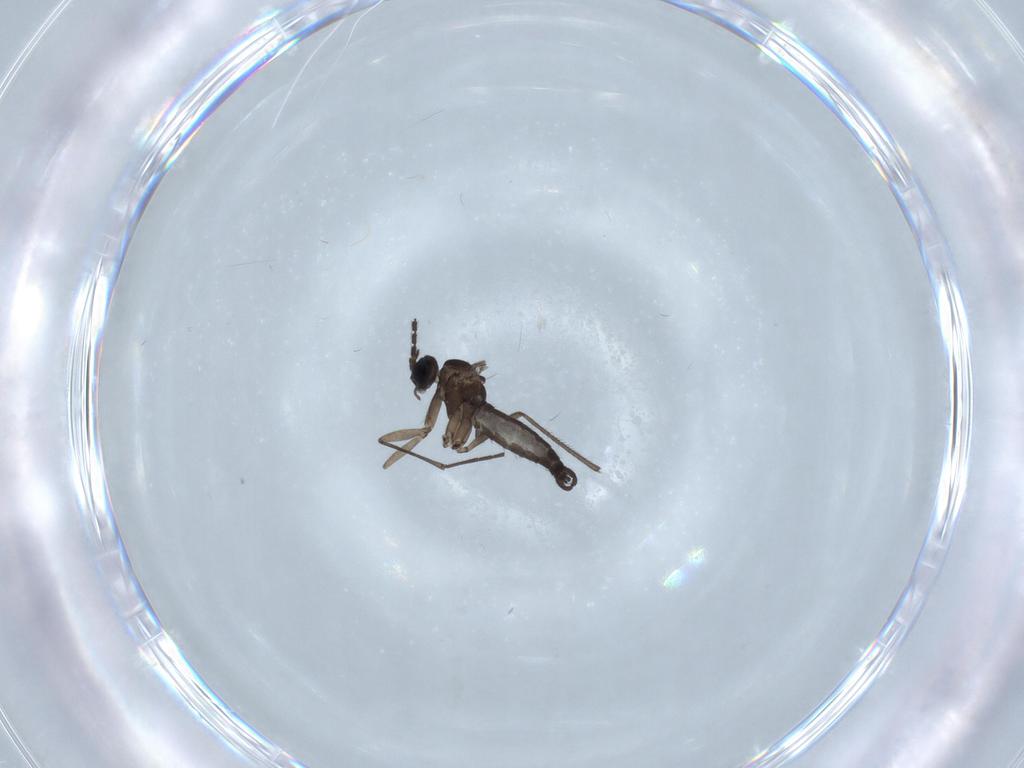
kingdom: Animalia
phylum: Arthropoda
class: Insecta
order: Diptera
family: Sciaridae
